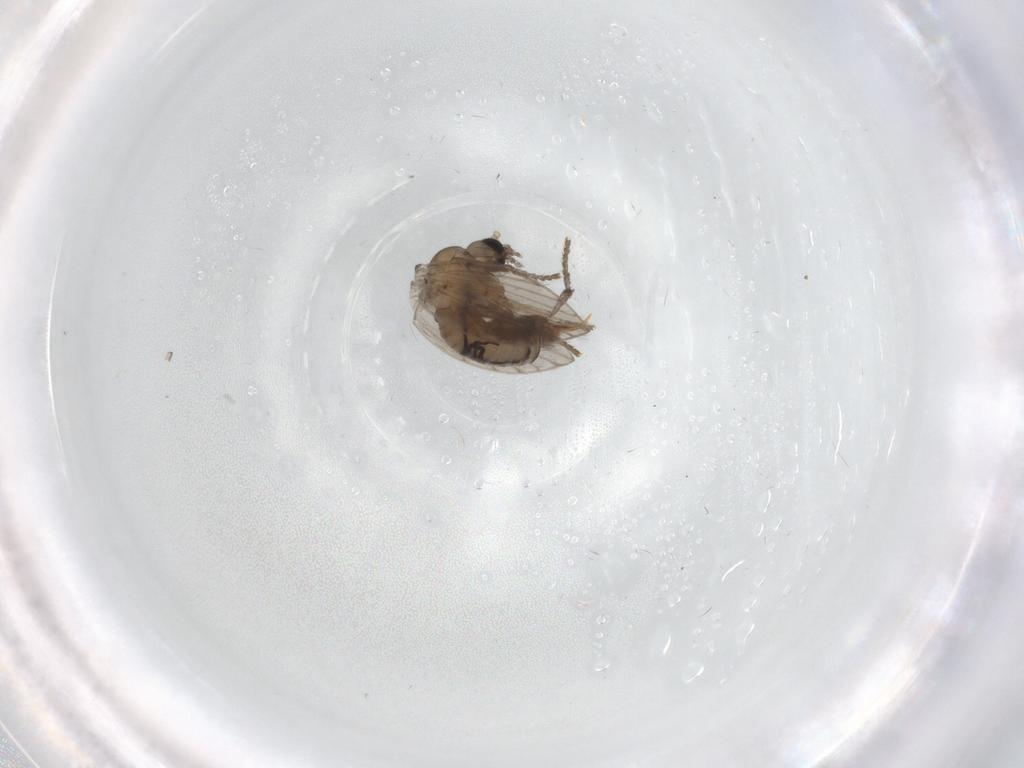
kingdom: Animalia
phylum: Arthropoda
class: Insecta
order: Diptera
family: Psychodidae
